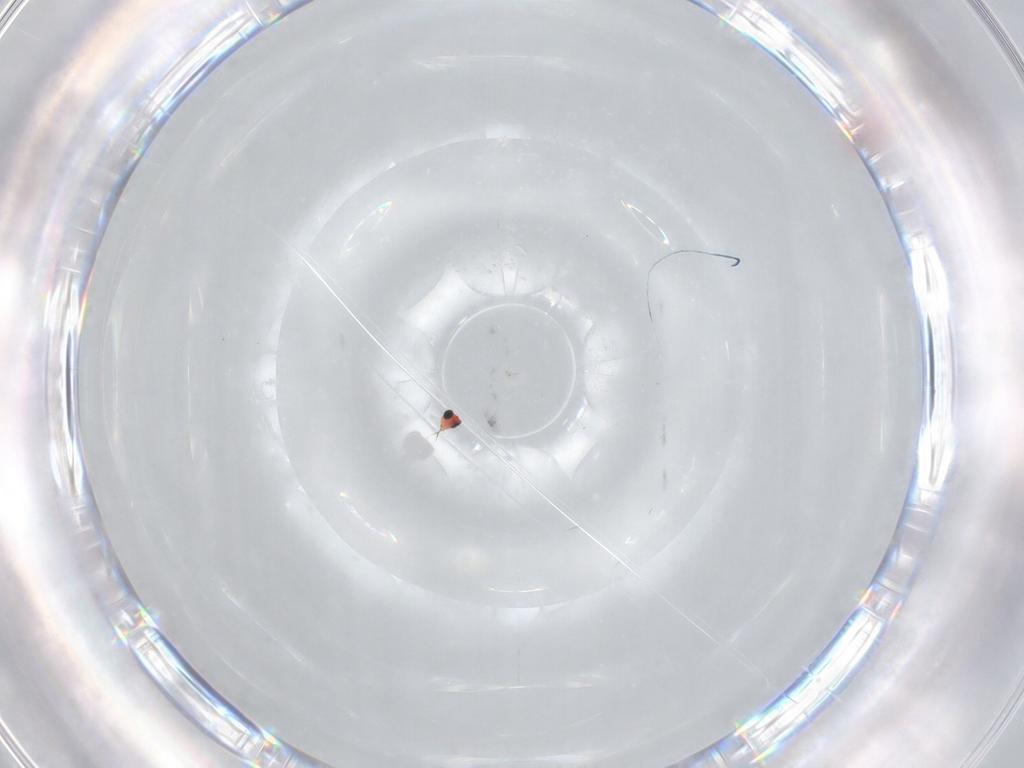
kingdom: Animalia
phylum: Arthropoda
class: Insecta
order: Hymenoptera
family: Trichogrammatidae
